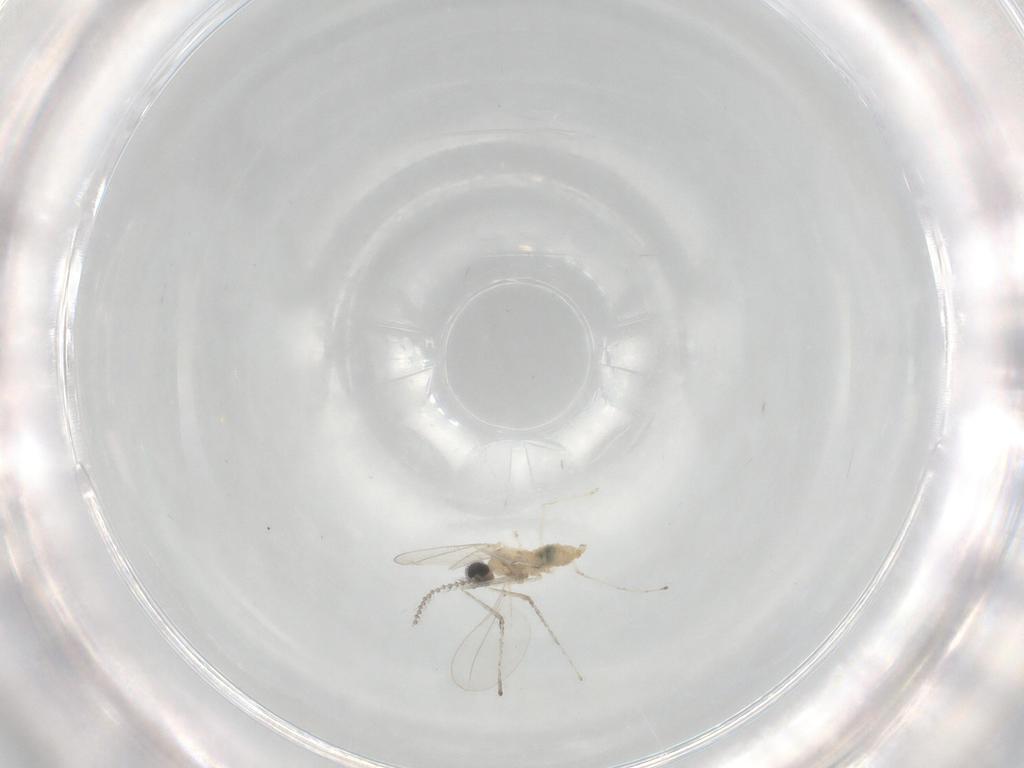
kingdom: Animalia
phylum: Arthropoda
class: Insecta
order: Diptera
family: Cecidomyiidae
